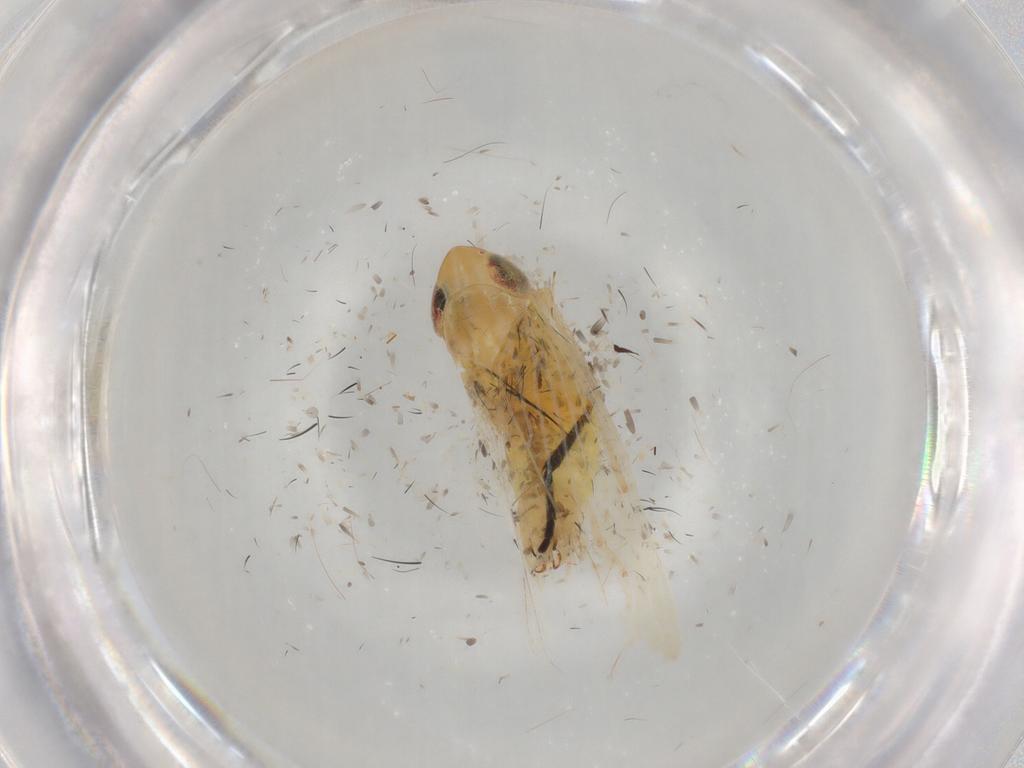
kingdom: Animalia
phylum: Arthropoda
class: Insecta
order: Hemiptera
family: Cicadellidae
